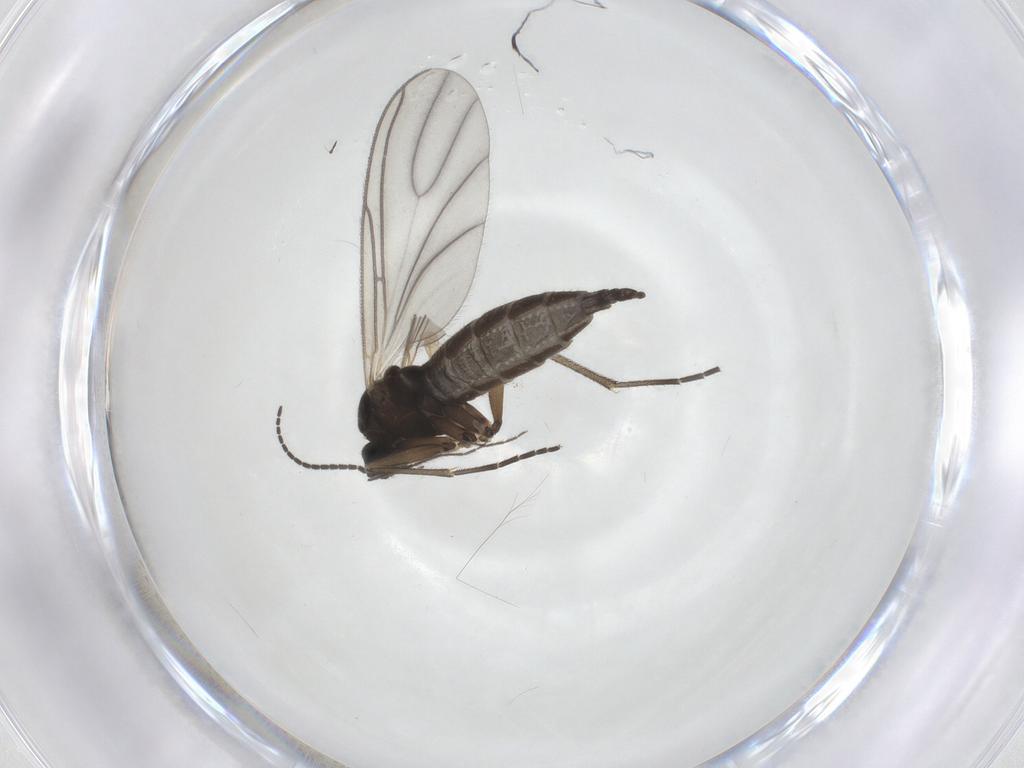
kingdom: Animalia
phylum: Arthropoda
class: Insecta
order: Diptera
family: Sciaridae
